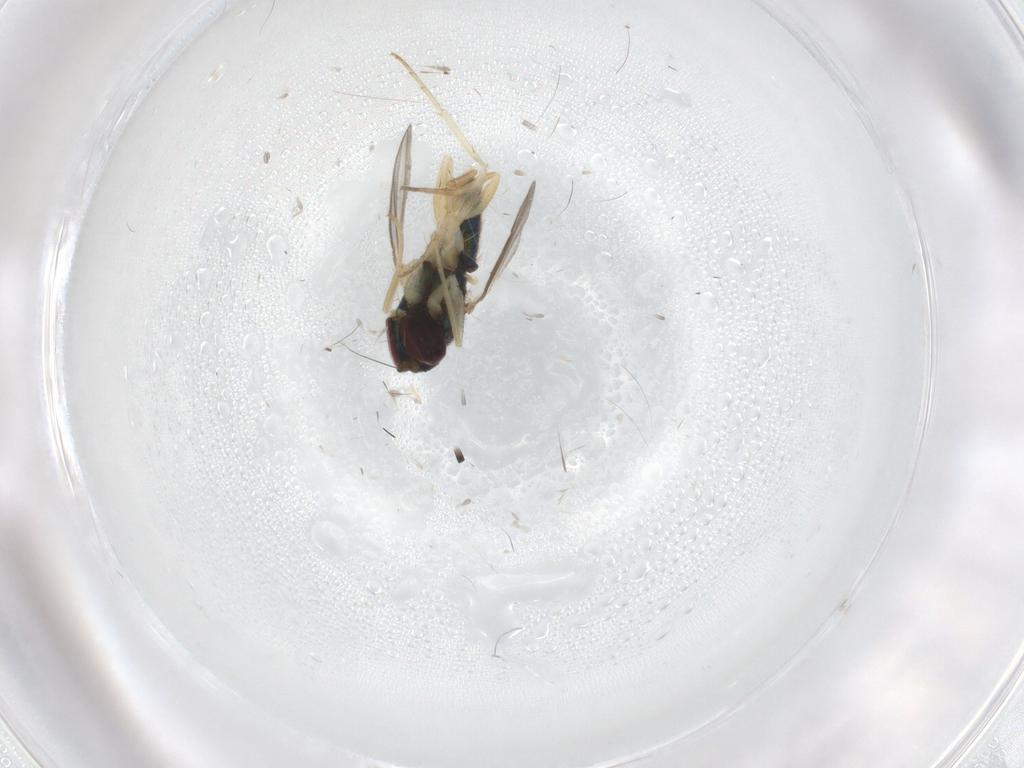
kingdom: Animalia
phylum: Arthropoda
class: Insecta
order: Diptera
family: Dolichopodidae
